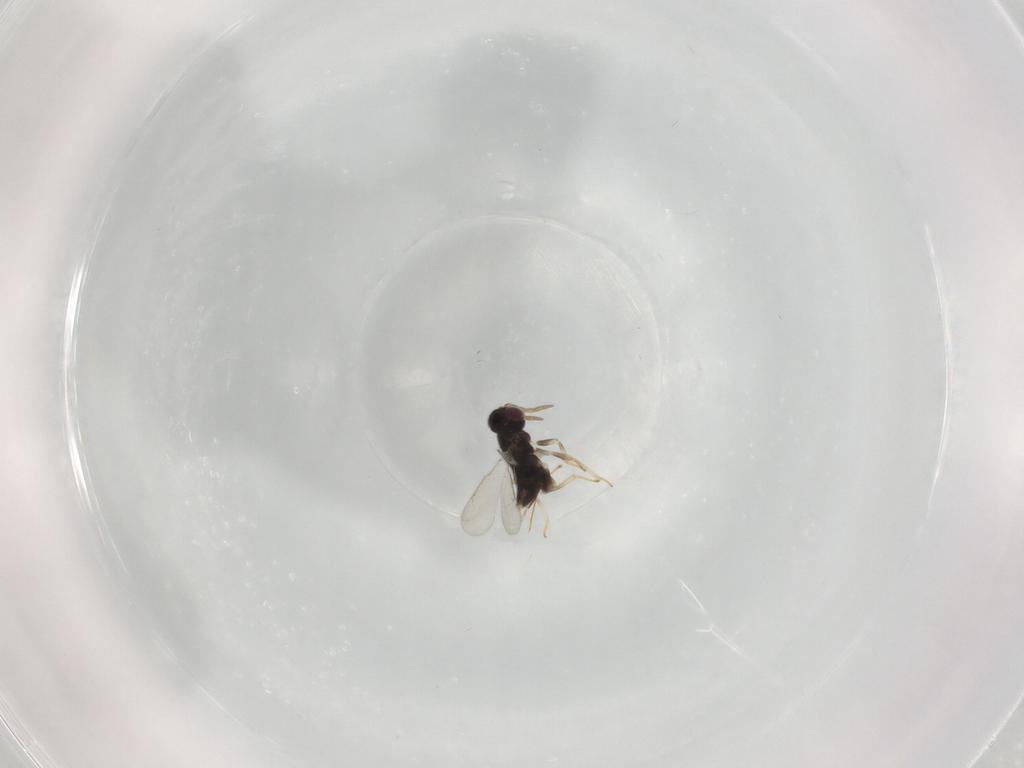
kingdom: Animalia
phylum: Arthropoda
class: Insecta
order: Hymenoptera
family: Aphelinidae
